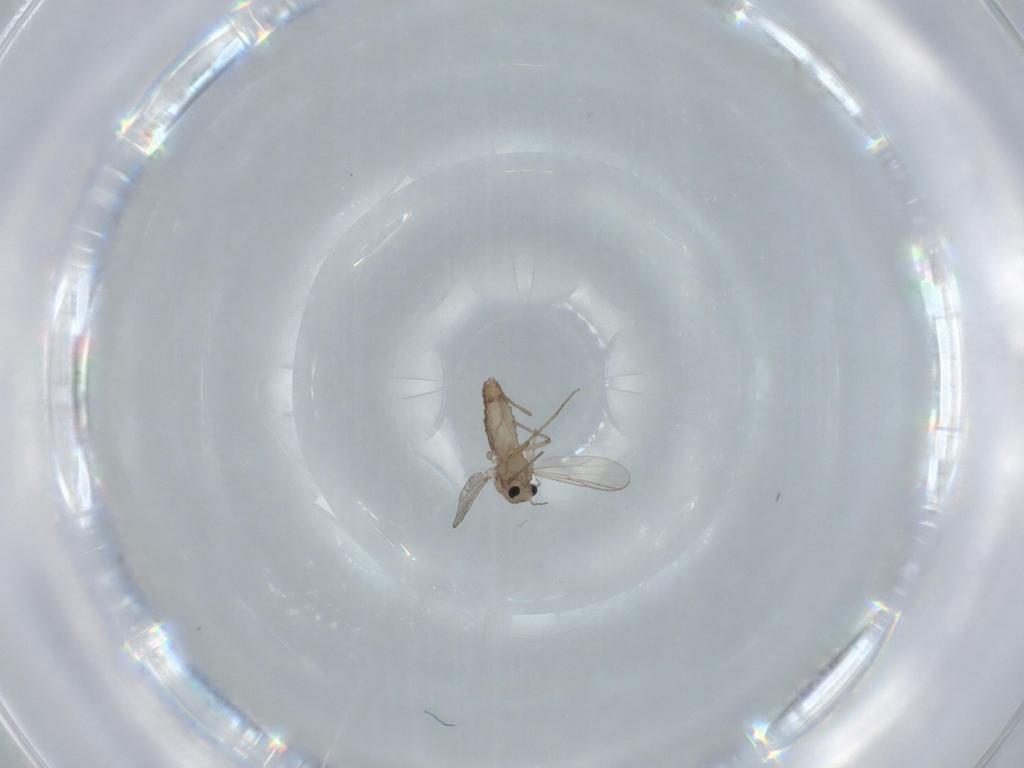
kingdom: Animalia
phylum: Arthropoda
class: Insecta
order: Diptera
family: Chironomidae
